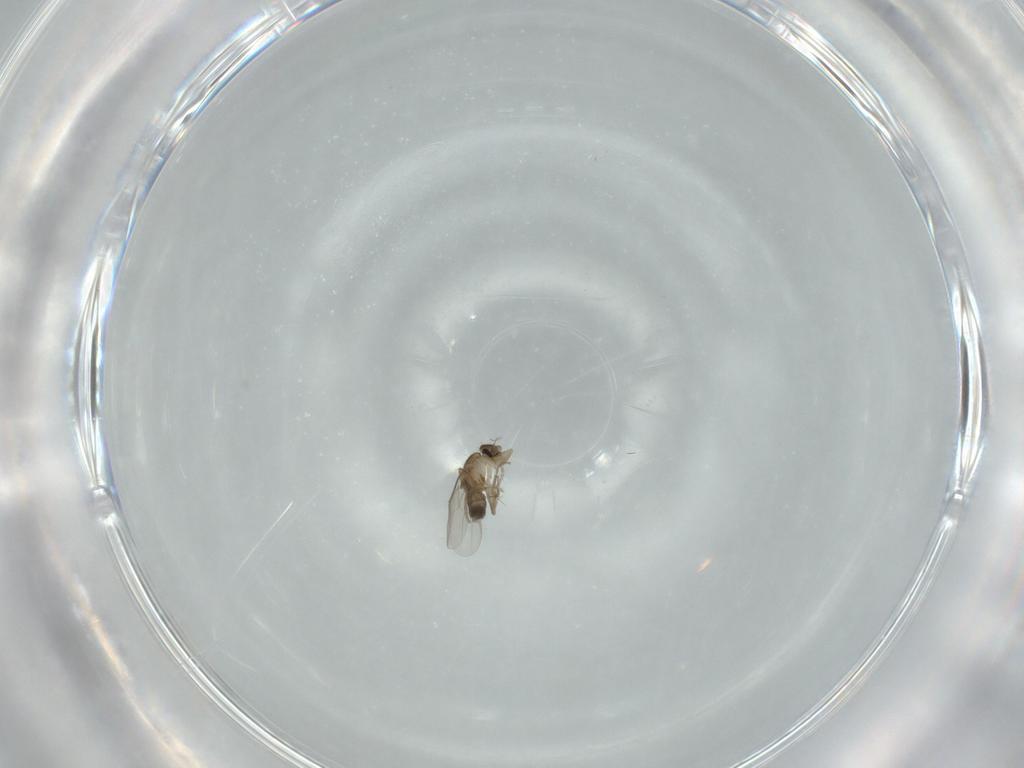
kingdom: Animalia
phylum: Arthropoda
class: Insecta
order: Diptera
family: Phoridae
